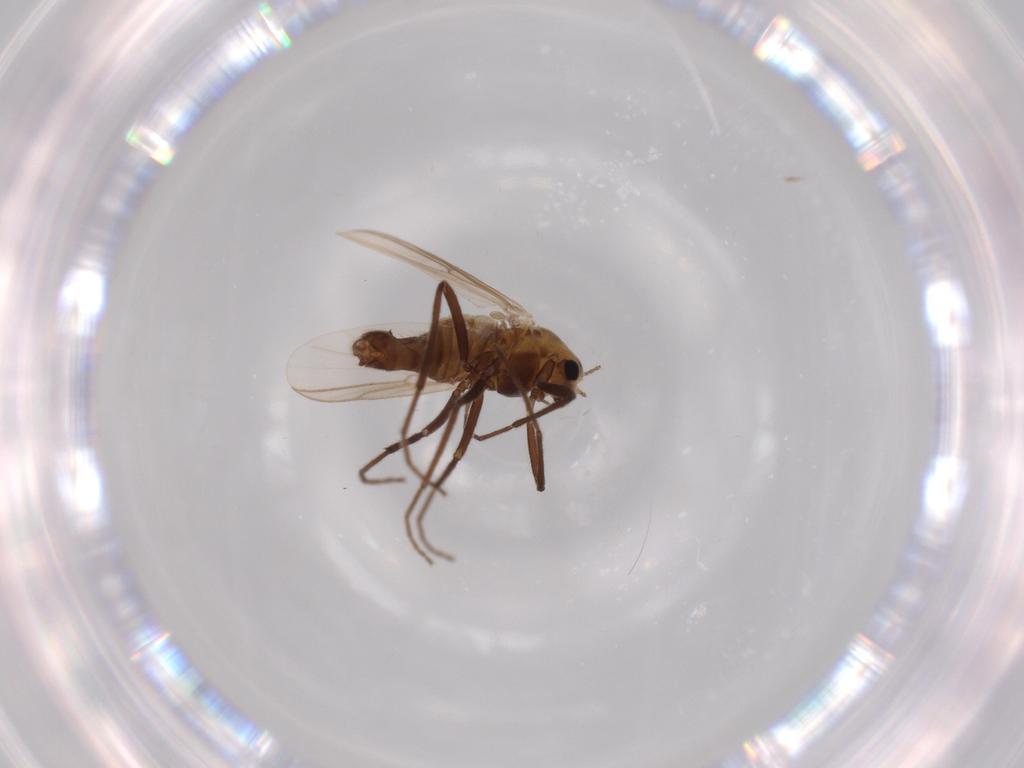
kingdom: Animalia
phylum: Arthropoda
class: Insecta
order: Diptera
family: Chironomidae
